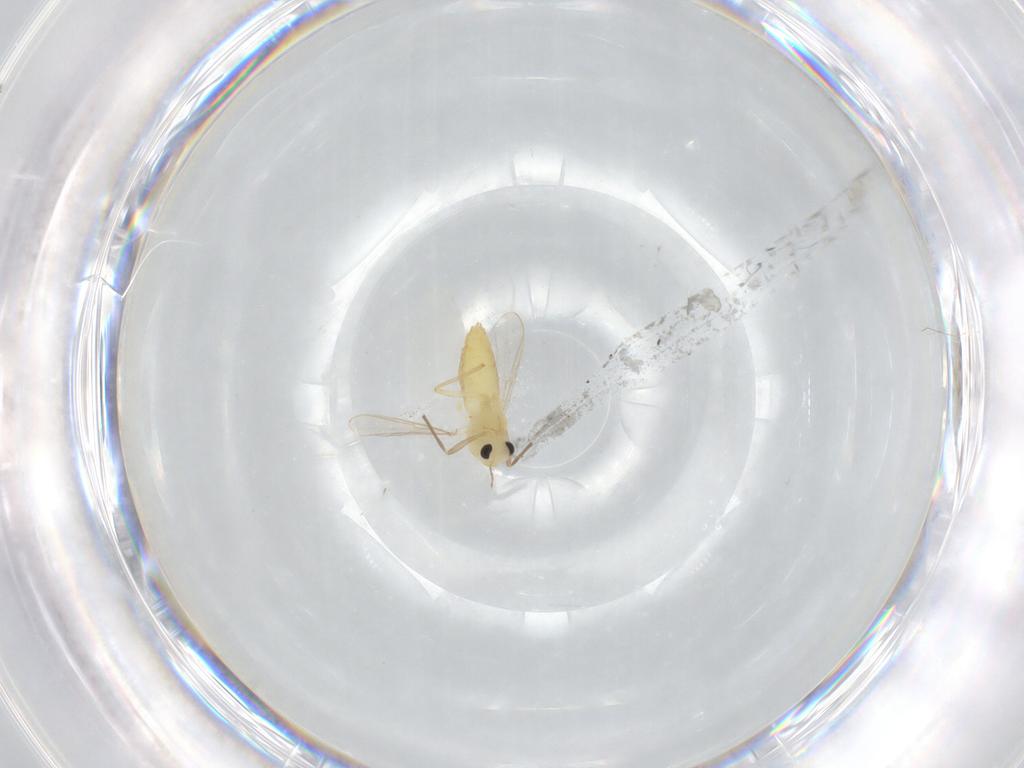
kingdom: Animalia
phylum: Arthropoda
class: Insecta
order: Diptera
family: Chironomidae
